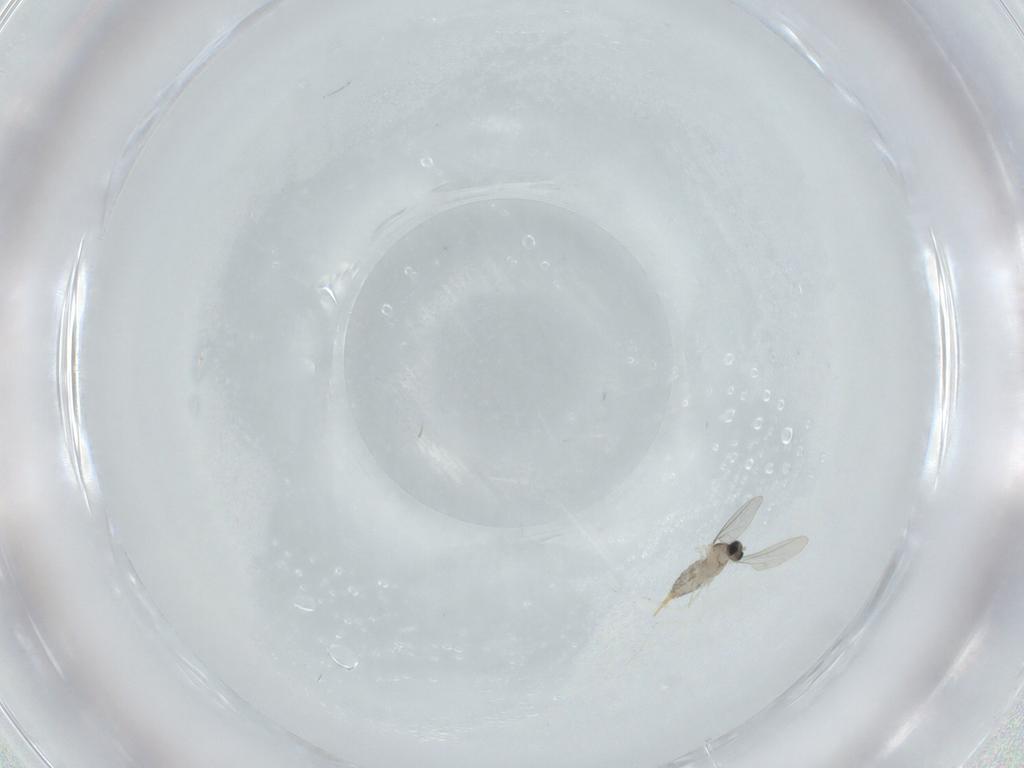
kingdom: Animalia
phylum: Arthropoda
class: Insecta
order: Diptera
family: Cecidomyiidae
